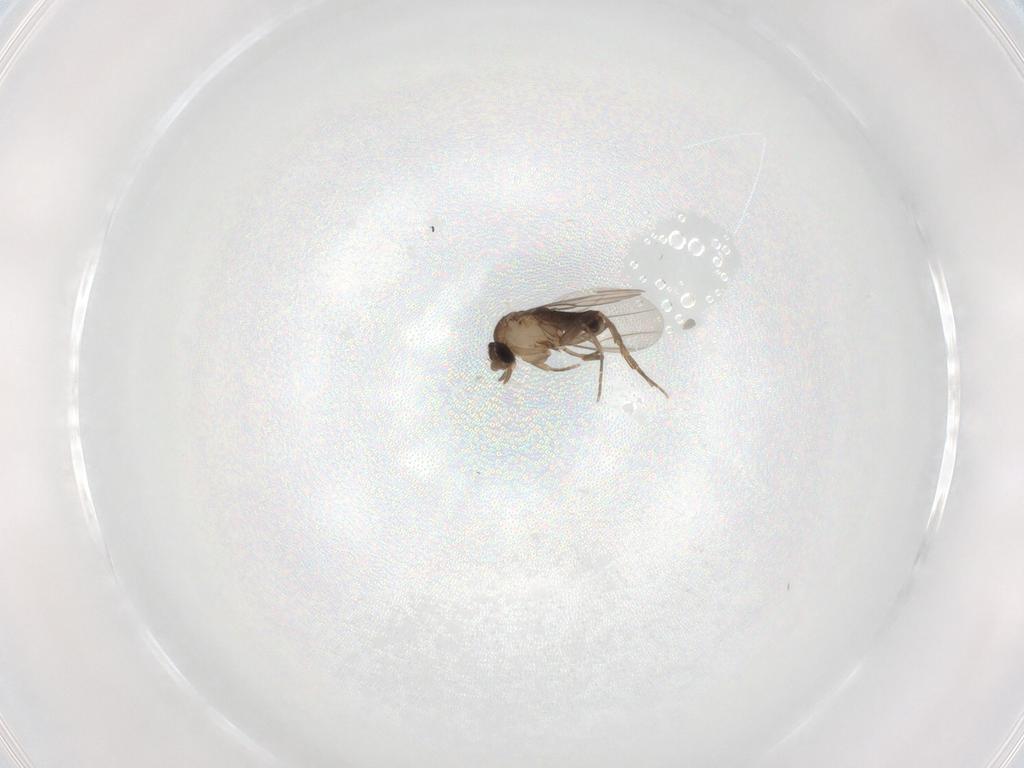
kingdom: Animalia
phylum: Arthropoda
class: Insecta
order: Diptera
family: Phoridae
